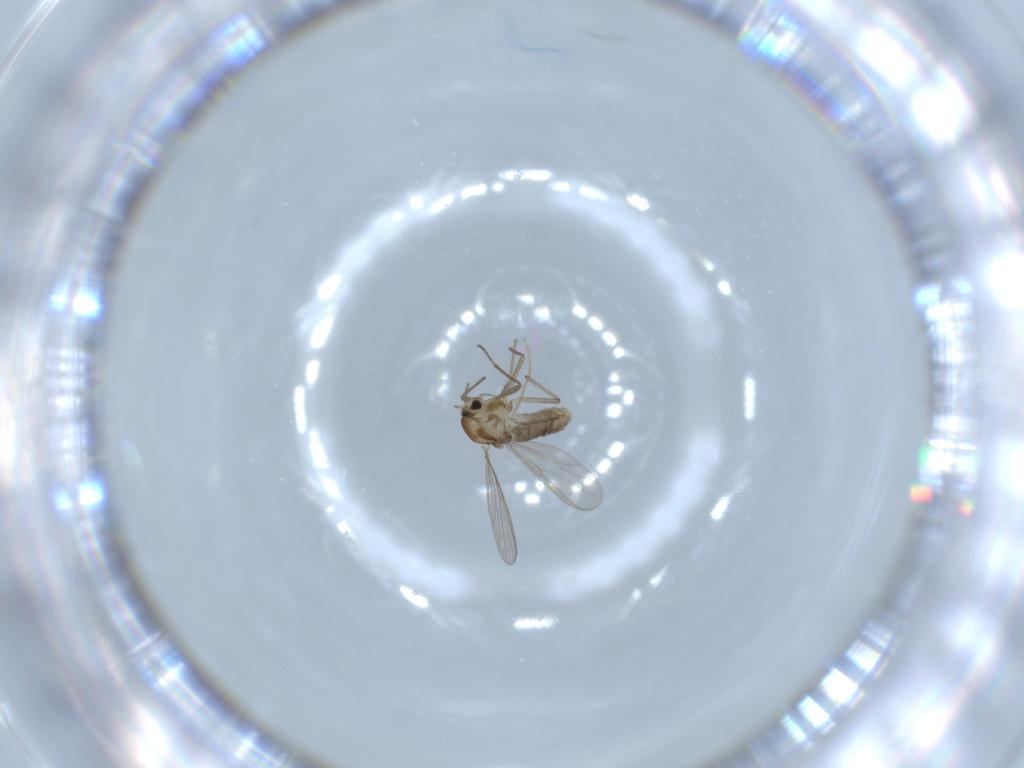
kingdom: Animalia
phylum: Arthropoda
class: Insecta
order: Diptera
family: Chironomidae
